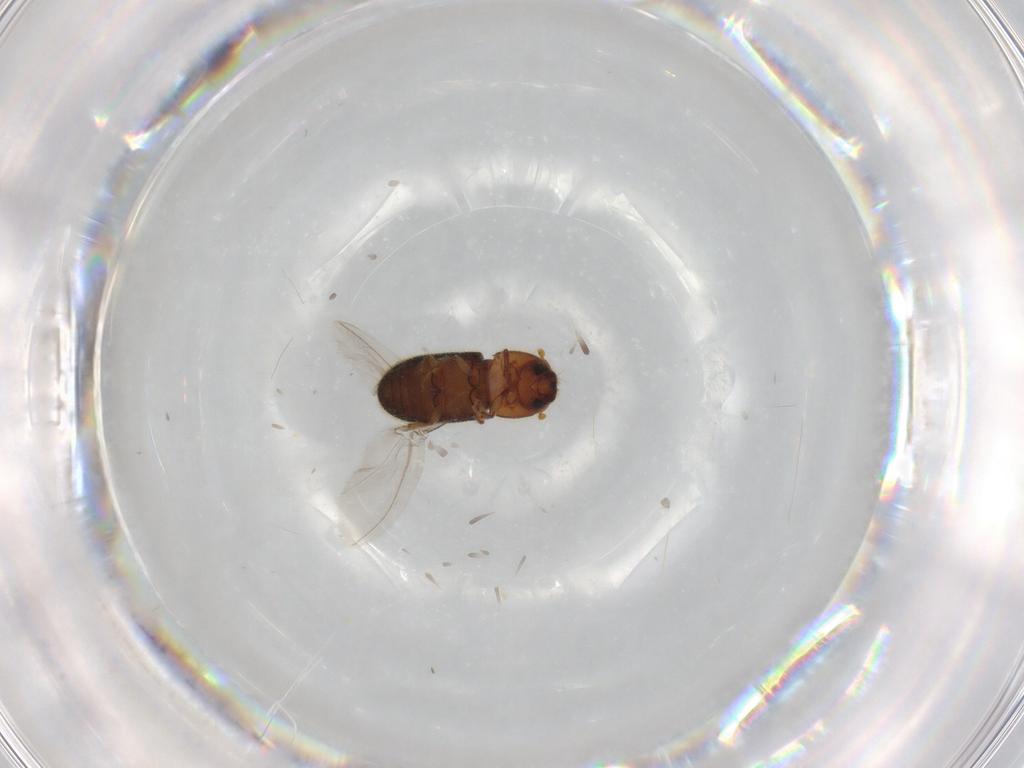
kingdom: Animalia
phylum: Arthropoda
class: Insecta
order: Coleoptera
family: Curculionidae
